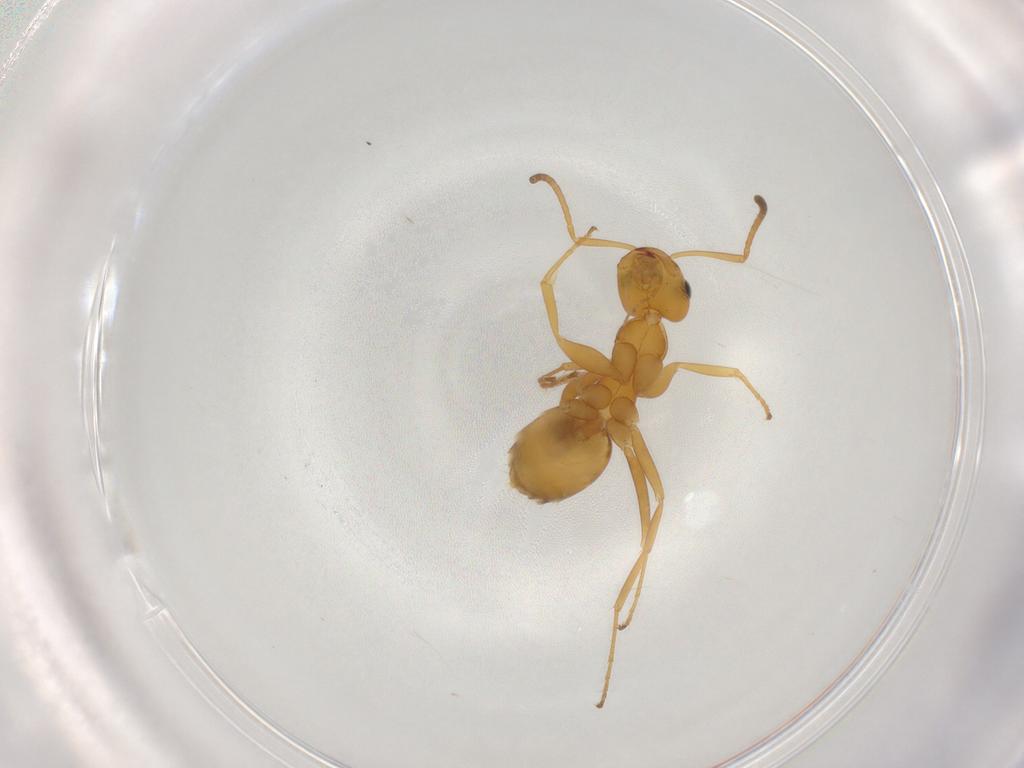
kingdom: Animalia
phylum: Arthropoda
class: Insecta
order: Hymenoptera
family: Formicidae
